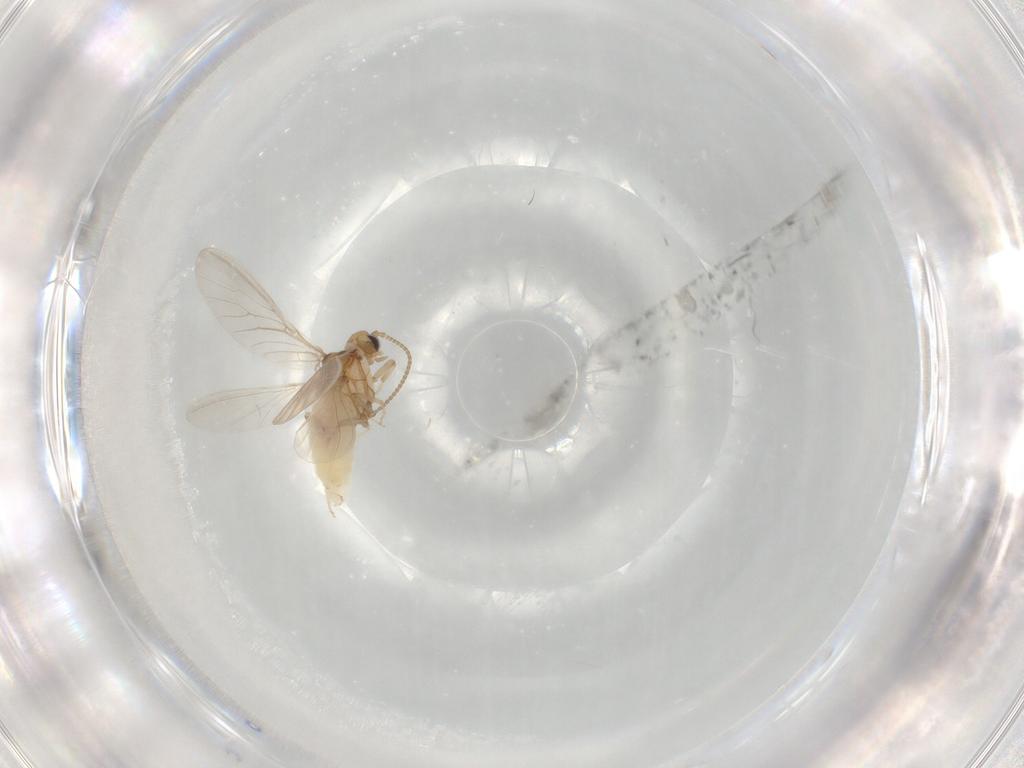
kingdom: Animalia
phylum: Arthropoda
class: Insecta
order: Neuroptera
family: Coniopterygidae
